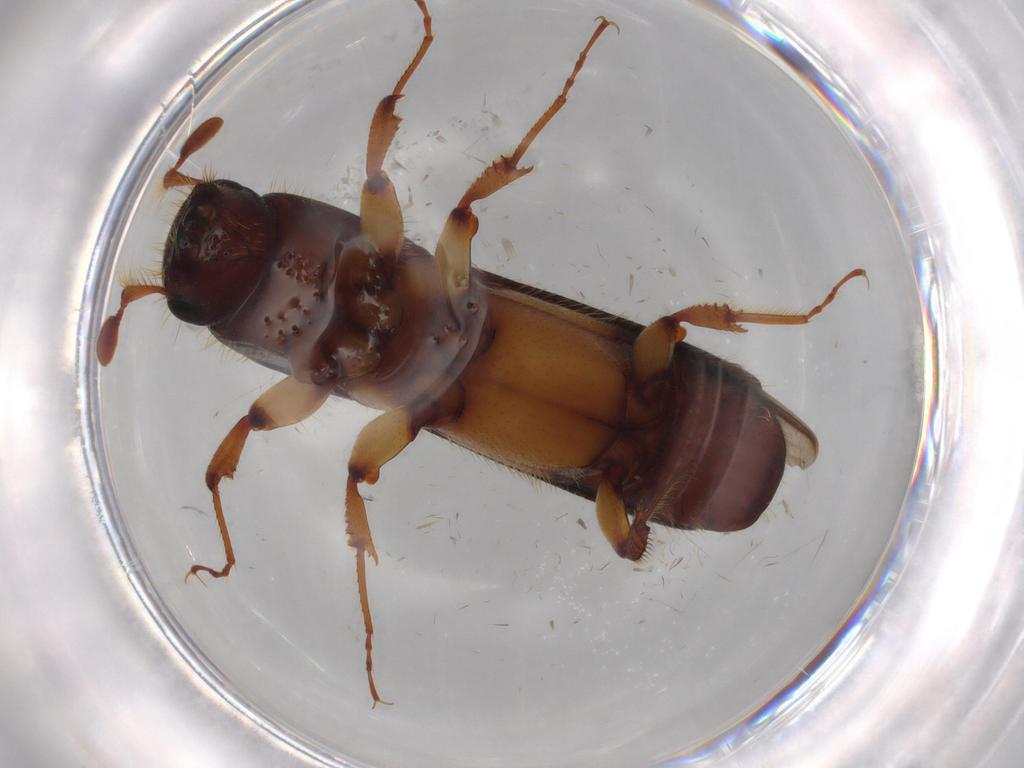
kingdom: Animalia
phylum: Arthropoda
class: Insecta
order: Coleoptera
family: Curculionidae
